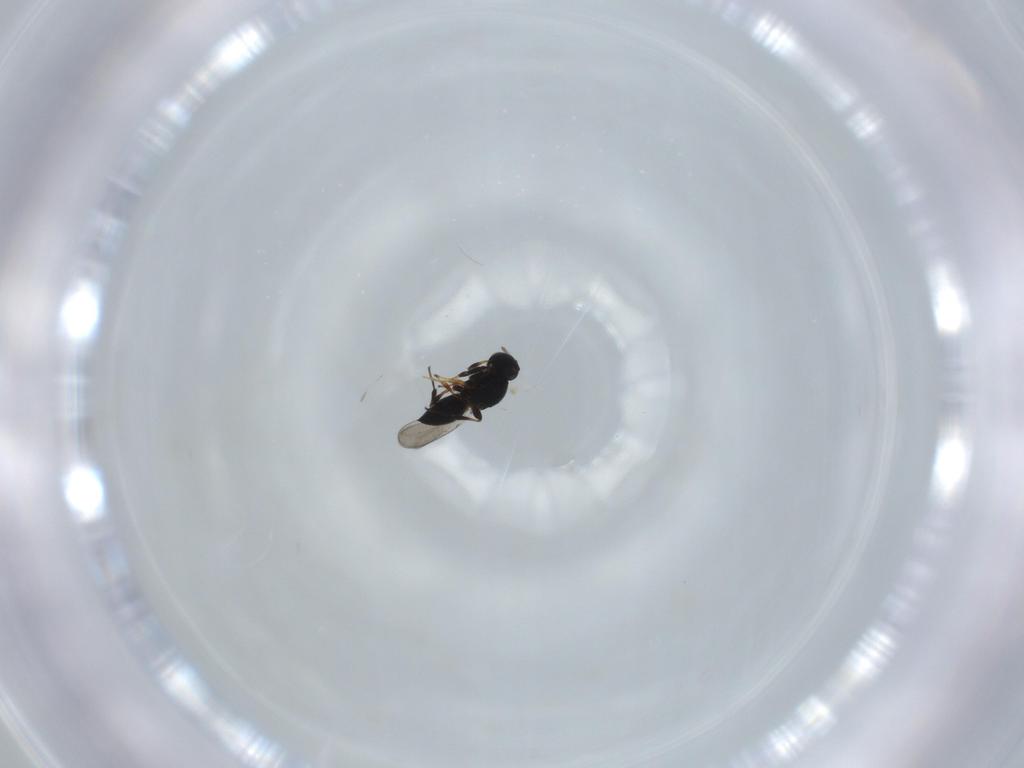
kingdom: Animalia
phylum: Arthropoda
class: Insecta
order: Hymenoptera
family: Platygastridae
